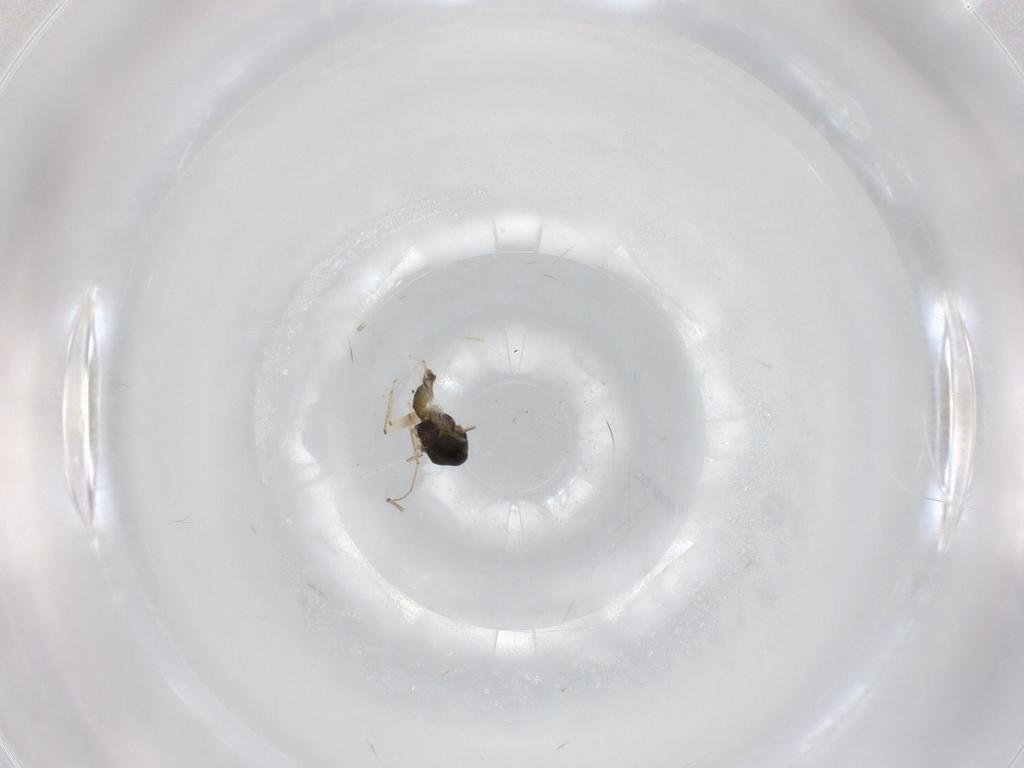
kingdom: Animalia
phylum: Arthropoda
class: Insecta
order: Diptera
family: Chironomidae
